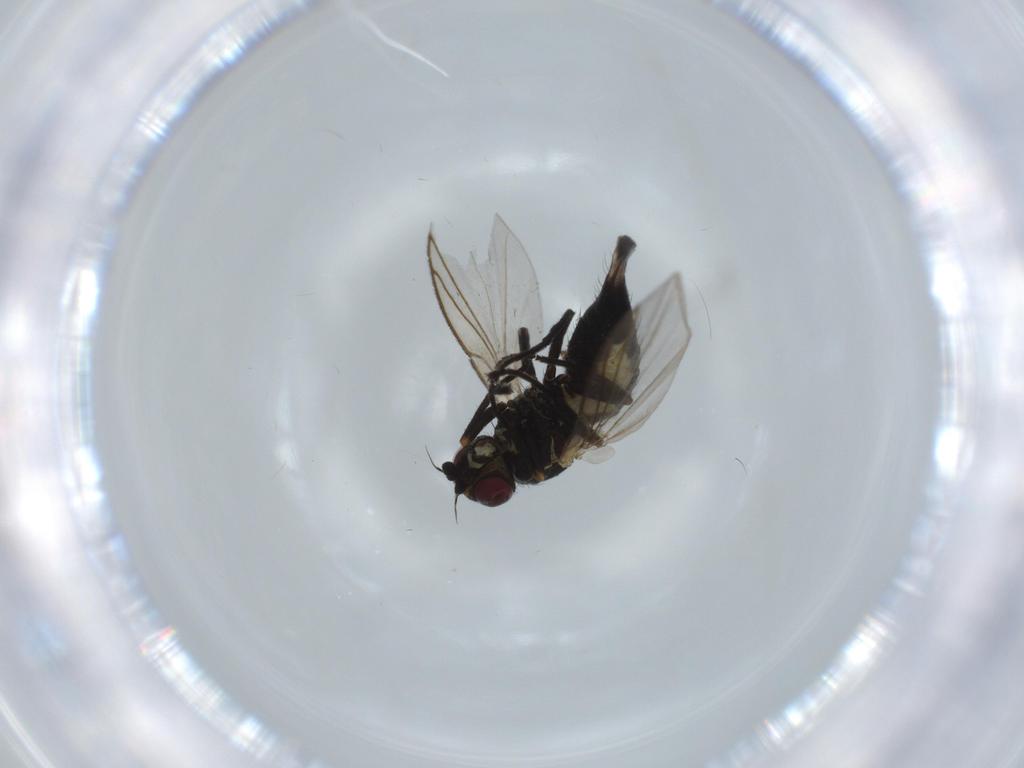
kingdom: Animalia
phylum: Arthropoda
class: Insecta
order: Diptera
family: Agromyzidae
